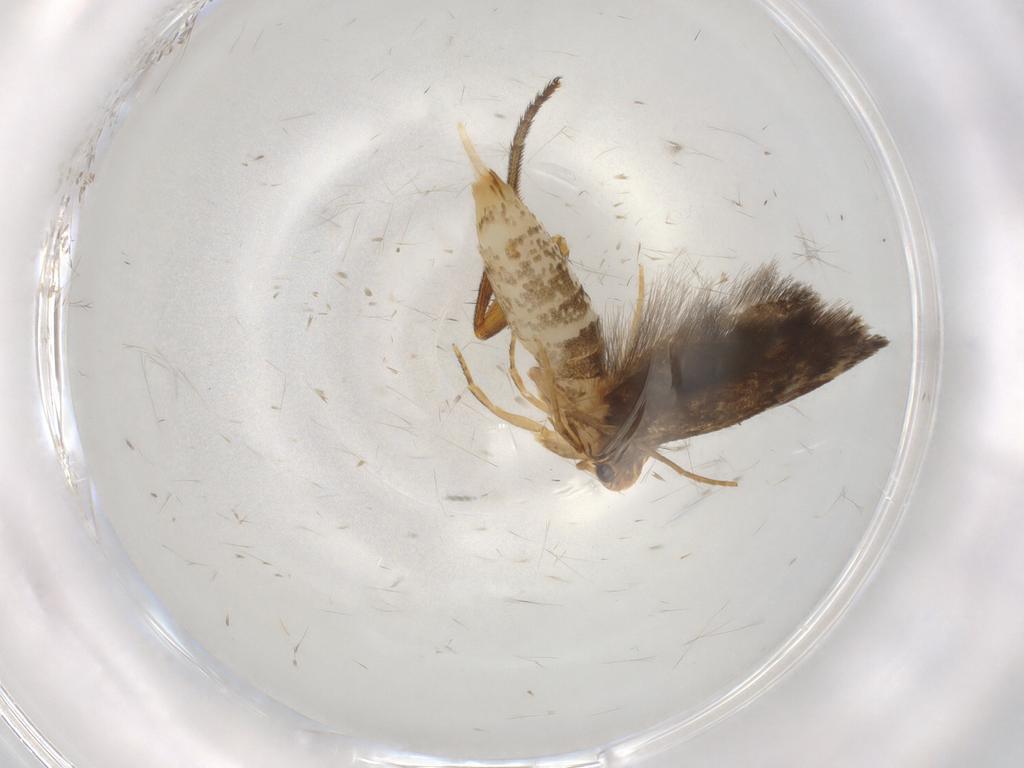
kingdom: Animalia
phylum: Arthropoda
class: Insecta
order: Lepidoptera
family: Tineidae
